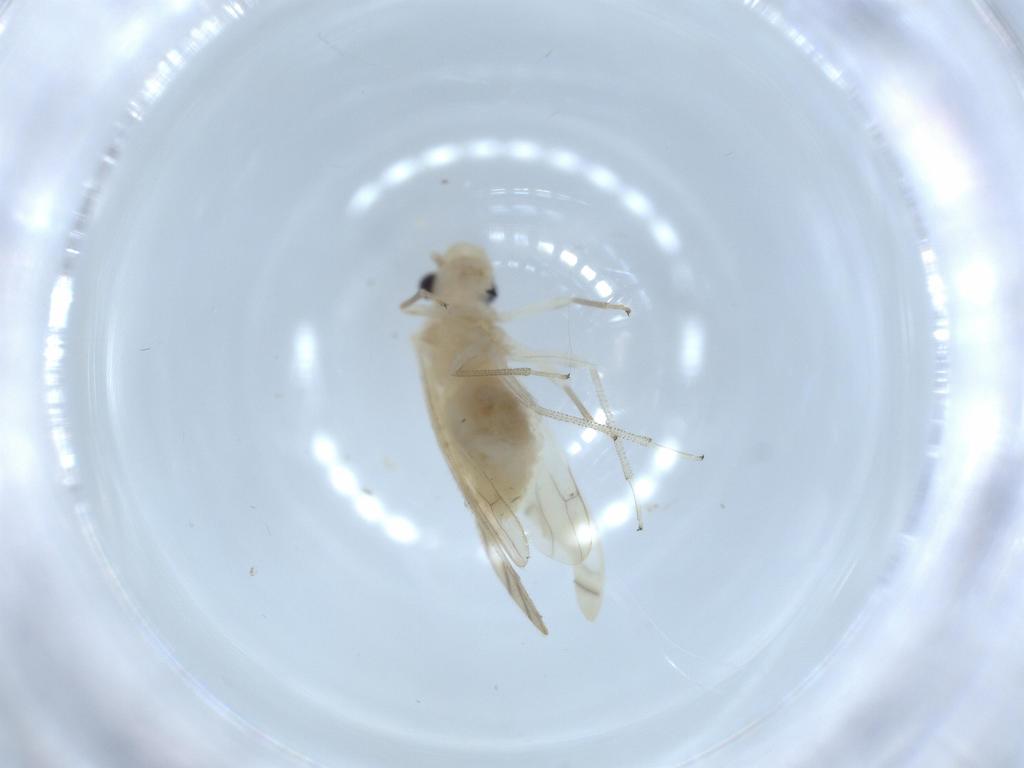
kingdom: Animalia
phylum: Arthropoda
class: Insecta
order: Psocodea
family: Caeciliusidae
